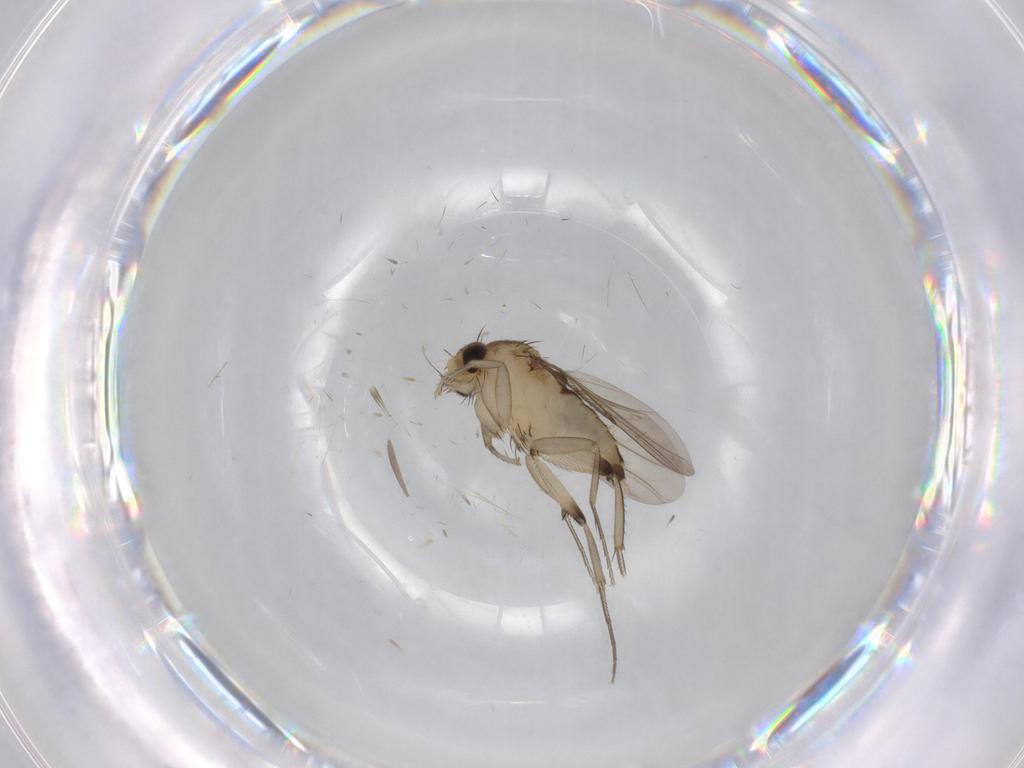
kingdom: Animalia
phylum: Arthropoda
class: Insecta
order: Diptera
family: Phoridae
